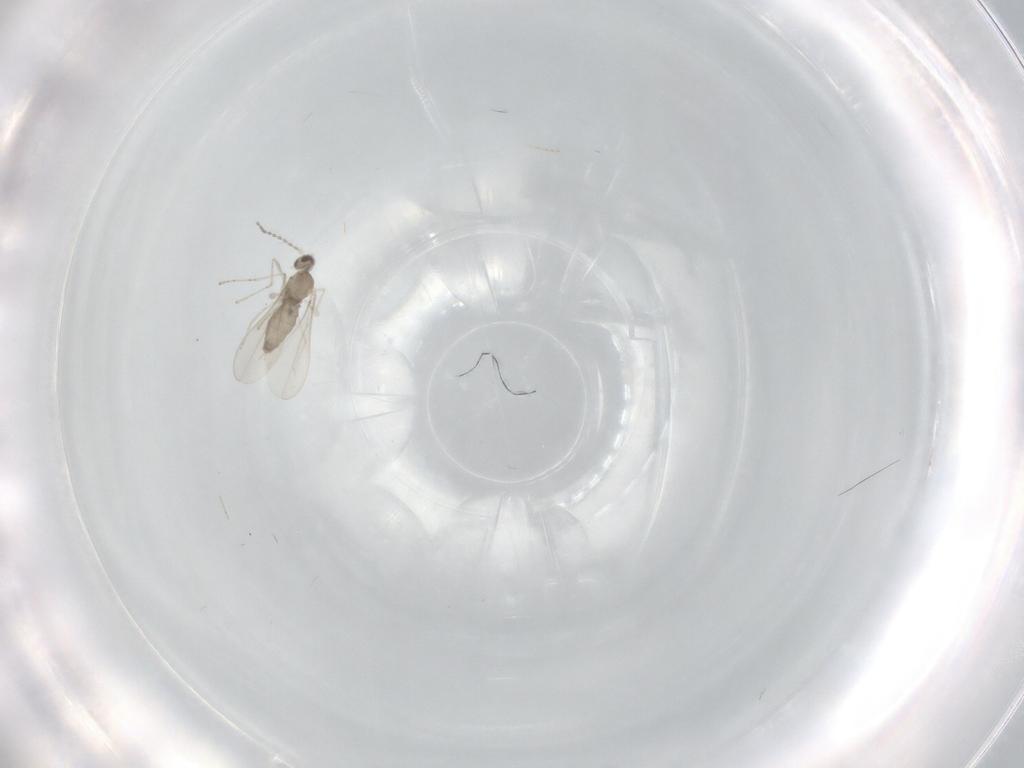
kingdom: Animalia
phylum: Arthropoda
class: Insecta
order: Diptera
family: Cecidomyiidae
